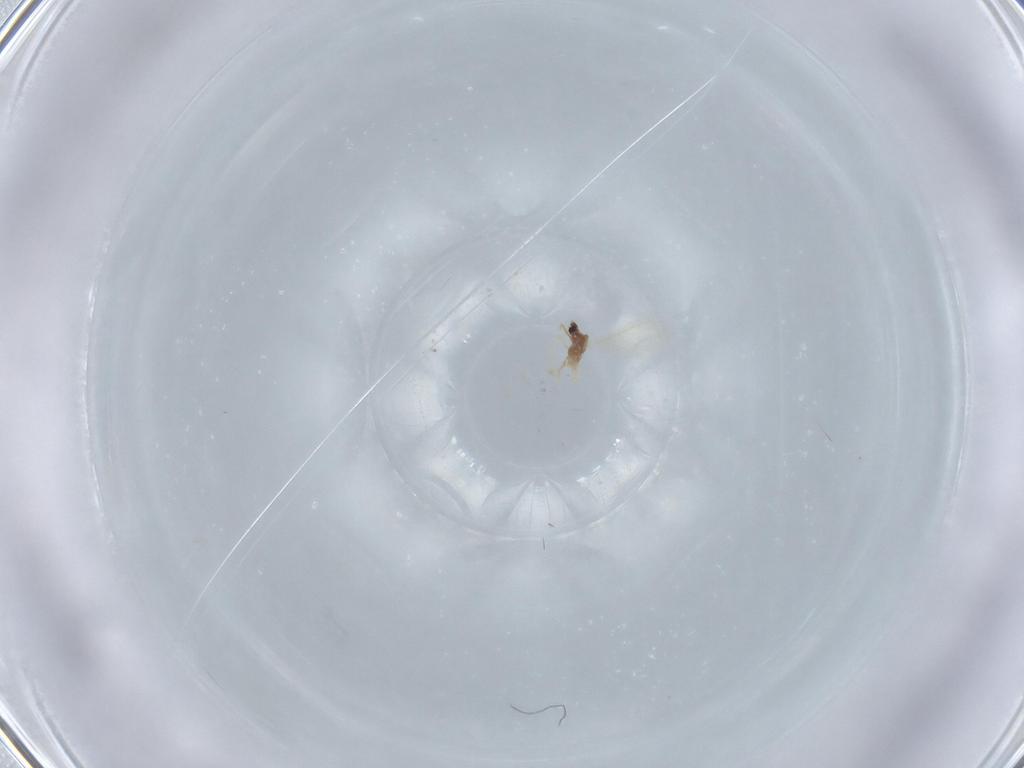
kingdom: Animalia
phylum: Arthropoda
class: Insecta
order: Psocodea
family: Epipsocidae
